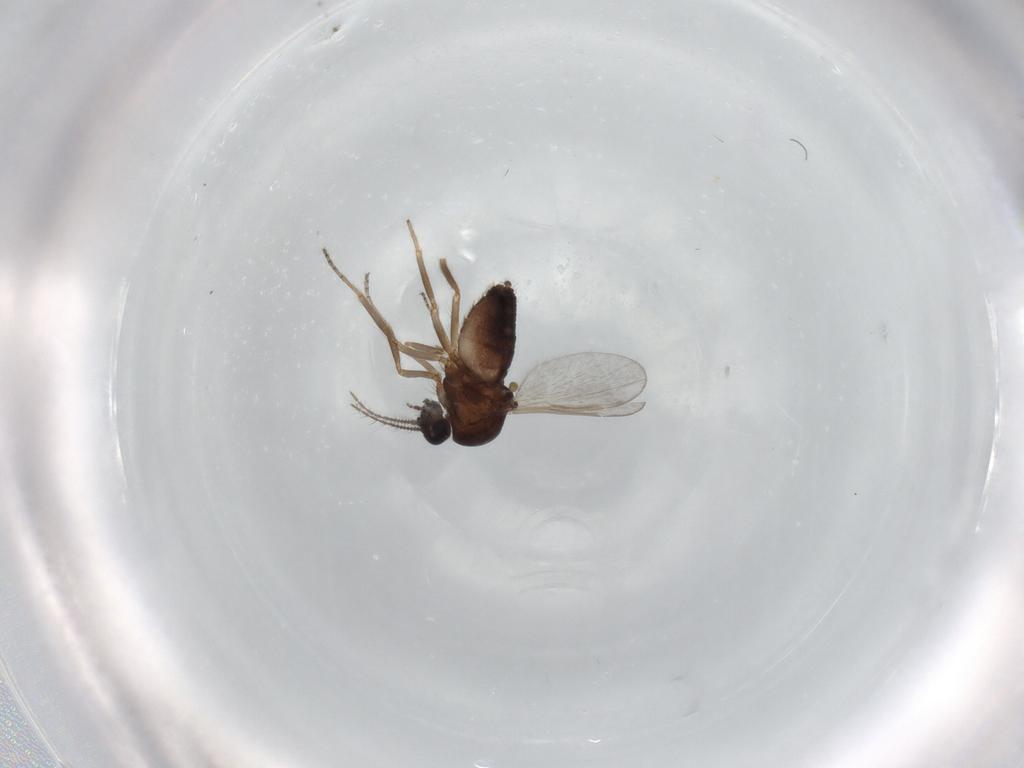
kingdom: Animalia
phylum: Arthropoda
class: Insecta
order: Diptera
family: Ceratopogonidae
